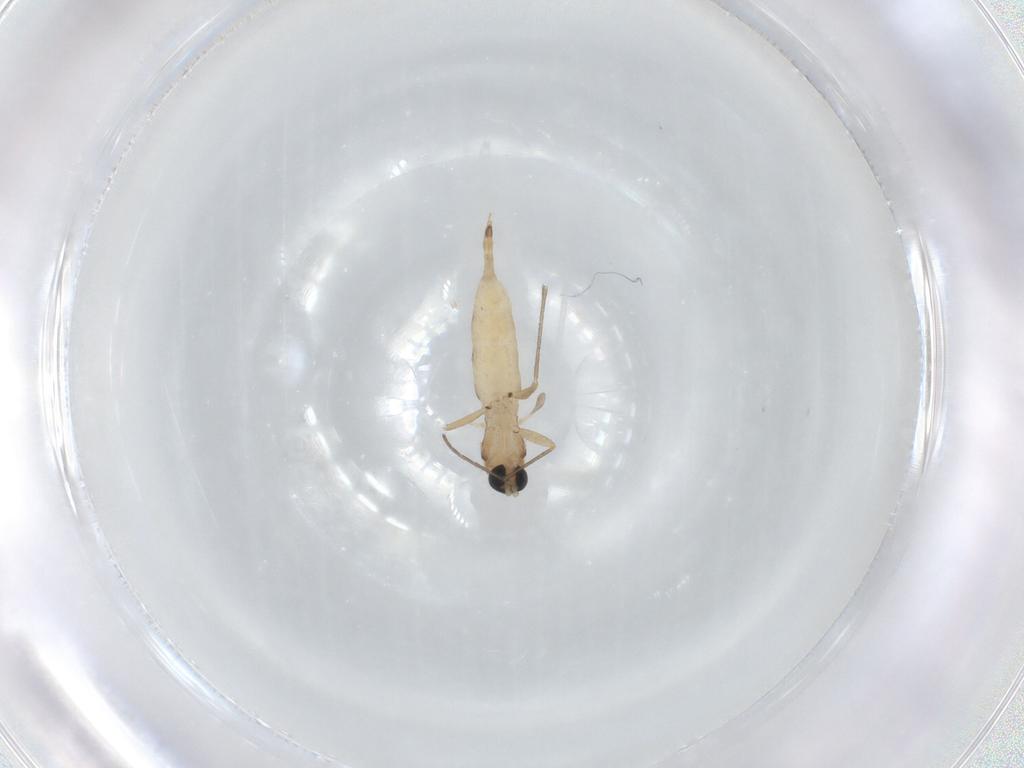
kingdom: Animalia
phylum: Arthropoda
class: Insecta
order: Diptera
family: Sciaridae
